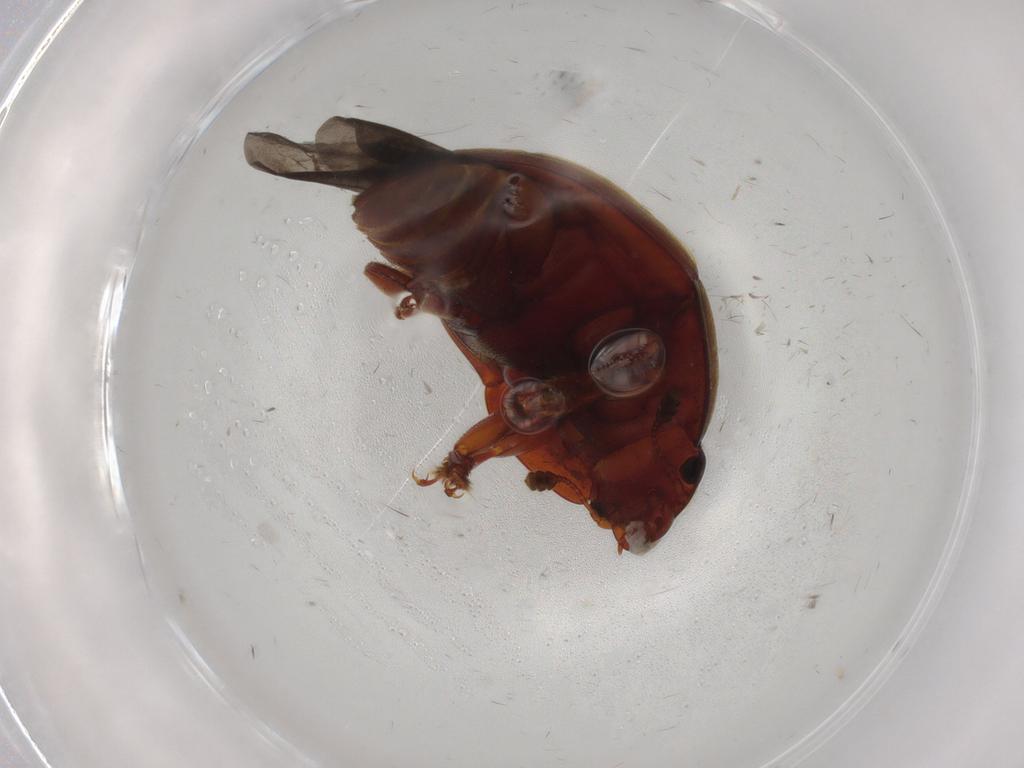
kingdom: Animalia
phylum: Arthropoda
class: Insecta
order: Coleoptera
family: Nitidulidae
